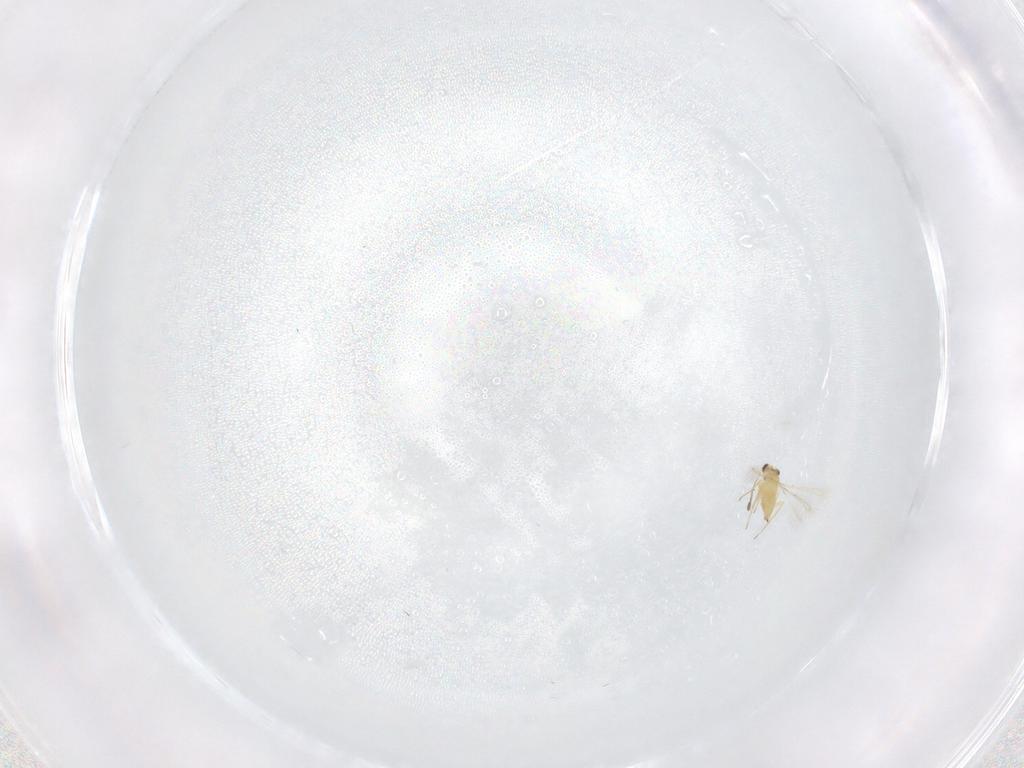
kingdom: Animalia
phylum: Arthropoda
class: Insecta
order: Hymenoptera
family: Mymaridae
